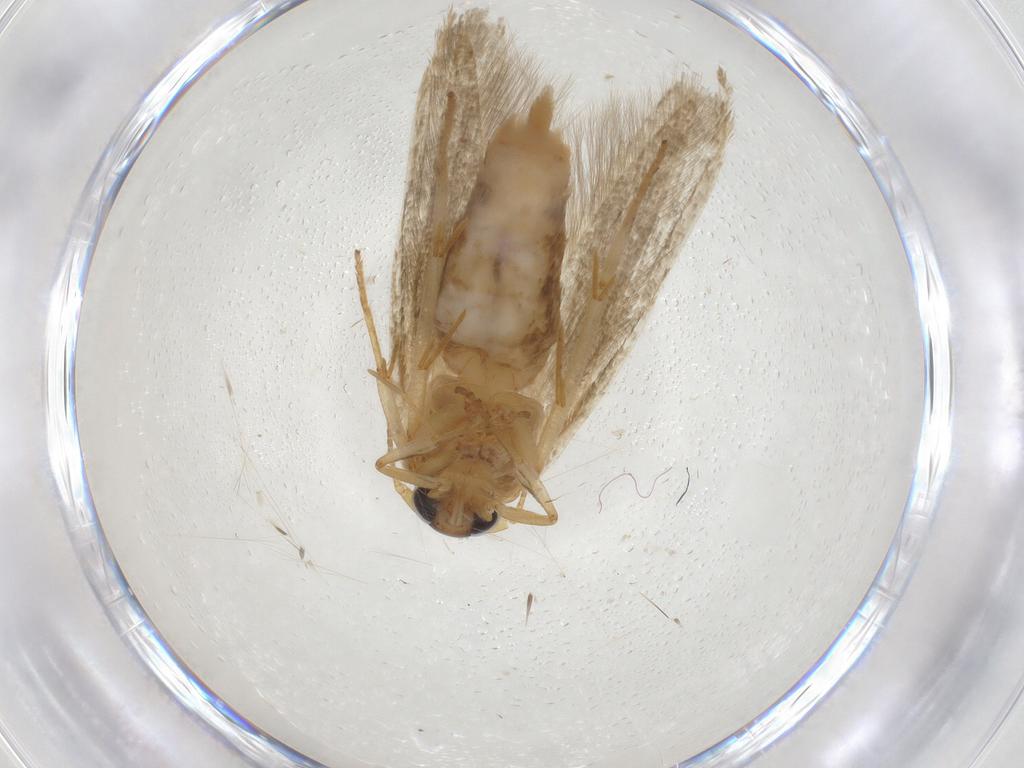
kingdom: Animalia
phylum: Arthropoda
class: Insecta
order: Lepidoptera
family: Blastobasidae
